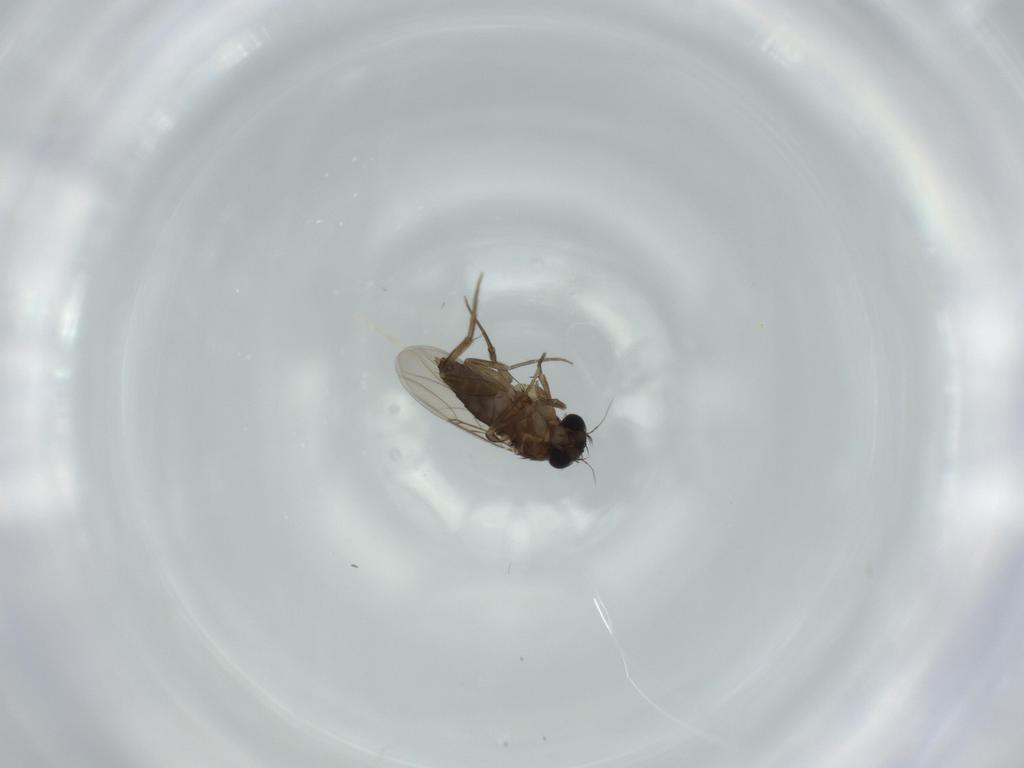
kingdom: Animalia
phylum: Arthropoda
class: Insecta
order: Diptera
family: Phoridae
